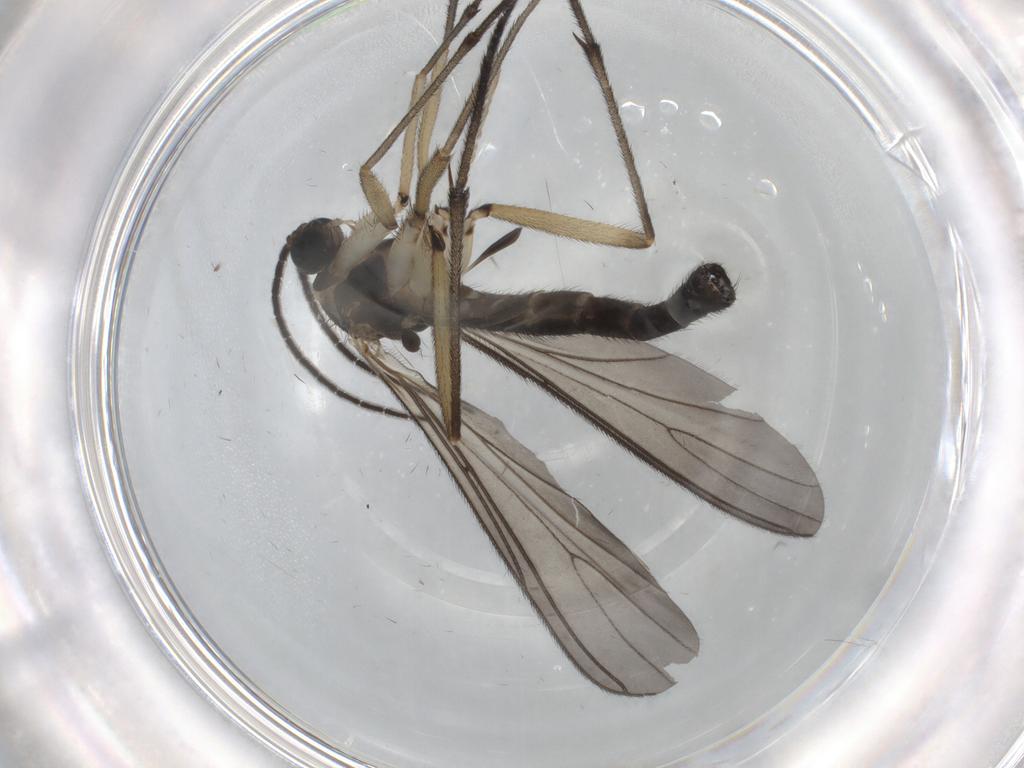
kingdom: Animalia
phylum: Arthropoda
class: Insecta
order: Diptera
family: Sciaridae
